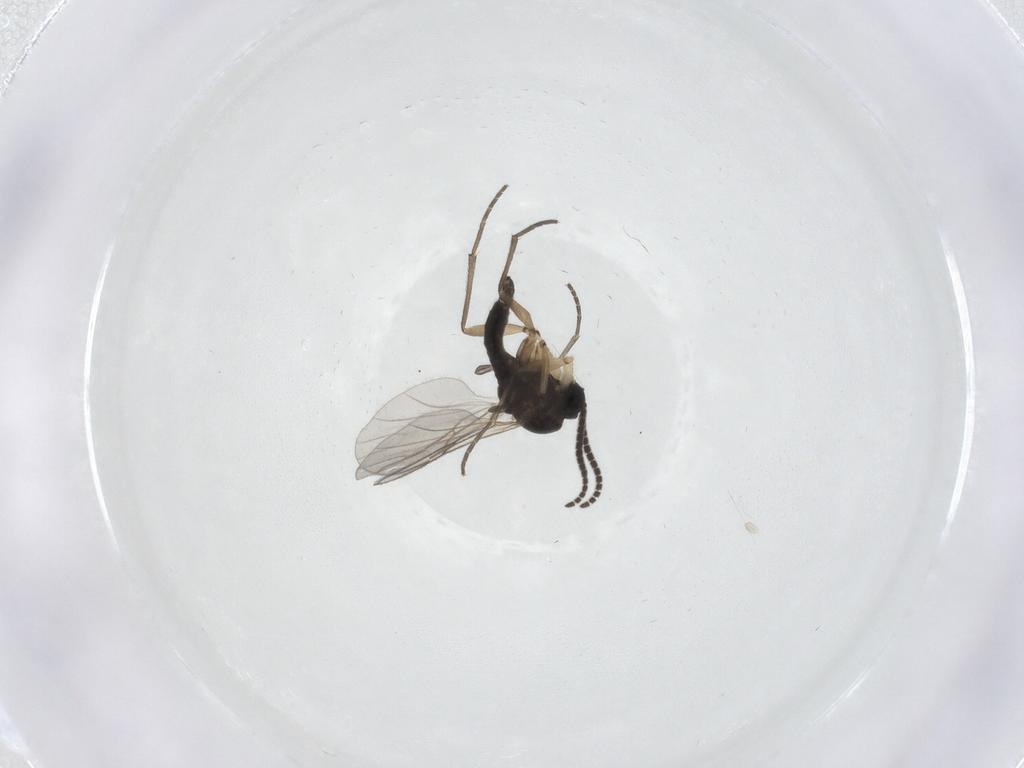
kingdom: Animalia
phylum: Arthropoda
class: Insecta
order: Diptera
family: Sciaridae
